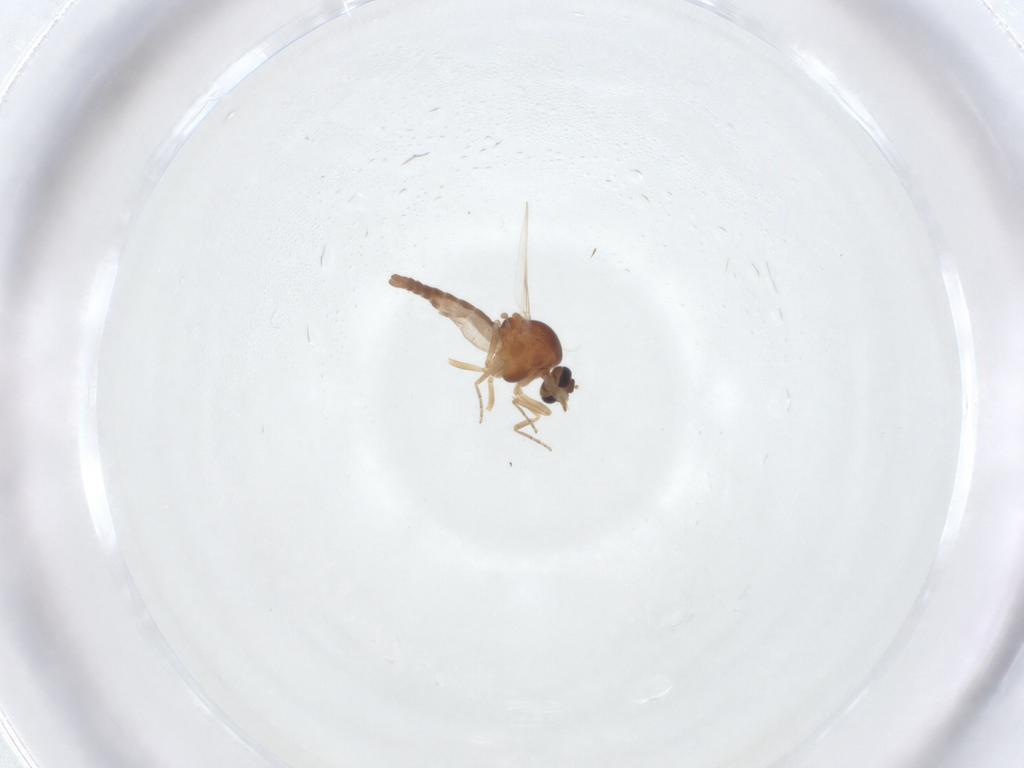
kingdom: Animalia
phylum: Arthropoda
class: Insecta
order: Diptera
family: Ceratopogonidae
